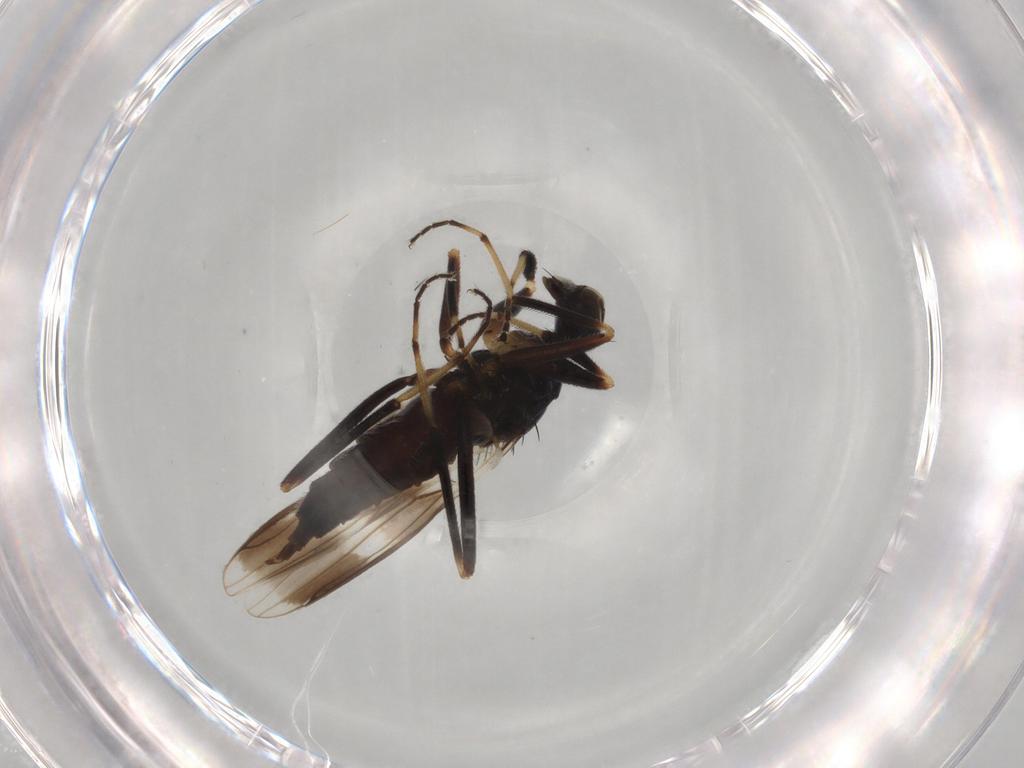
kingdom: Animalia
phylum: Arthropoda
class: Insecta
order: Diptera
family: Hybotidae
